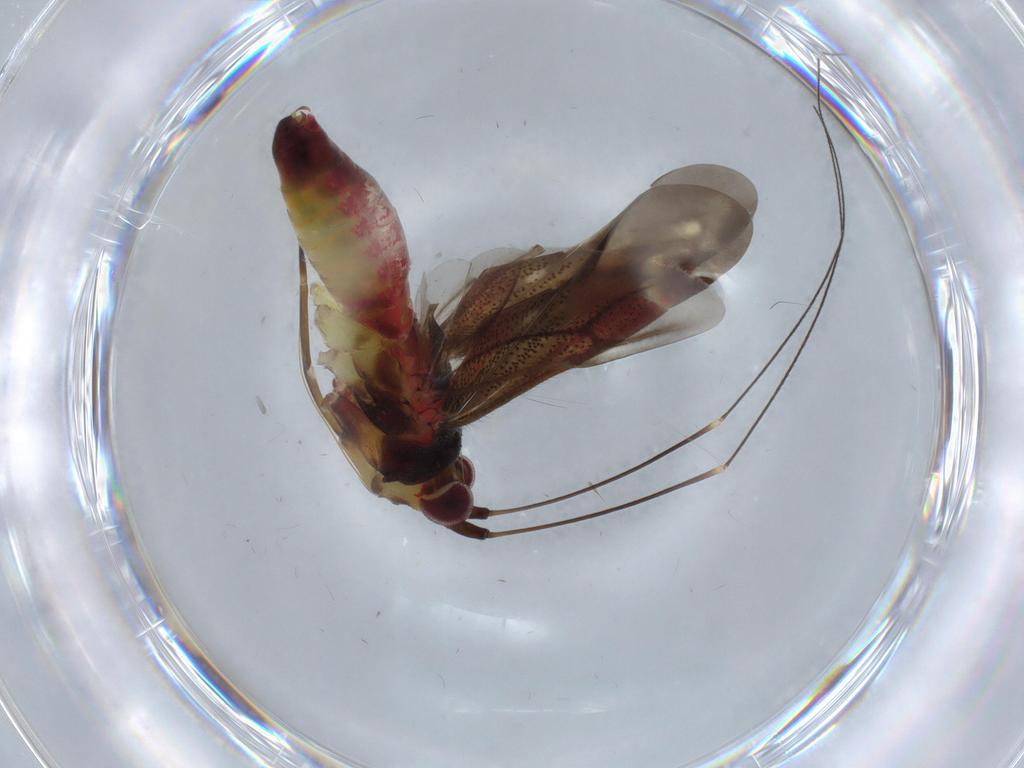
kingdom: Animalia
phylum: Arthropoda
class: Insecta
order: Hemiptera
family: Miridae
